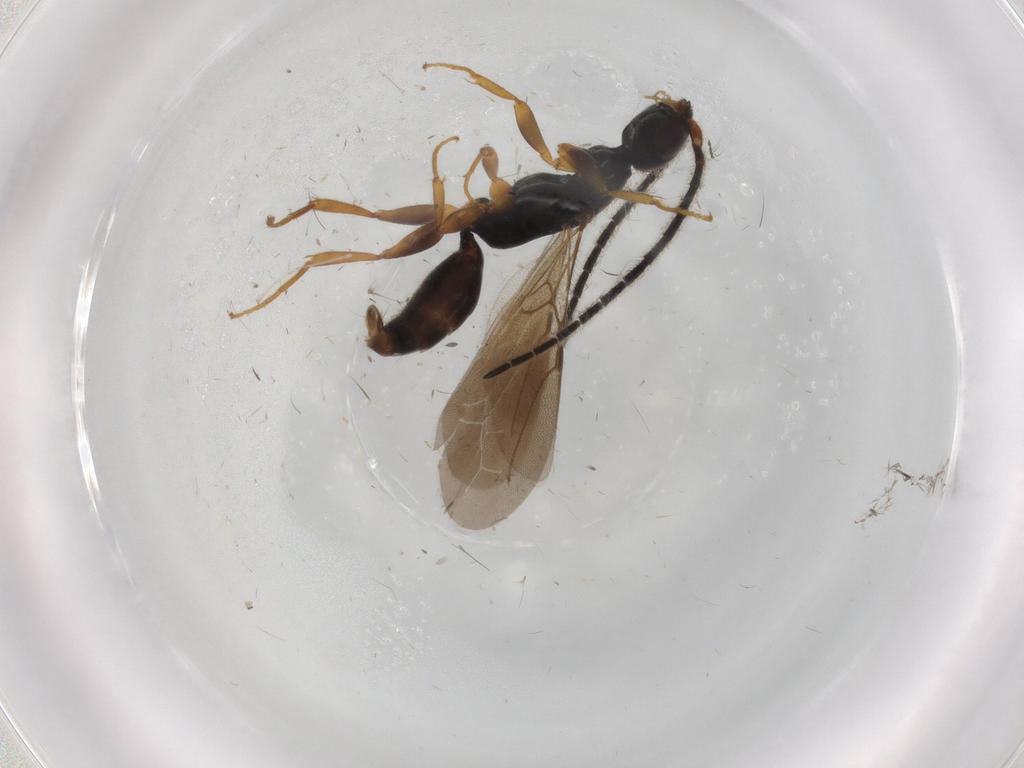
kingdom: Animalia
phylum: Arthropoda
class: Insecta
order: Hymenoptera
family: Bethylidae
